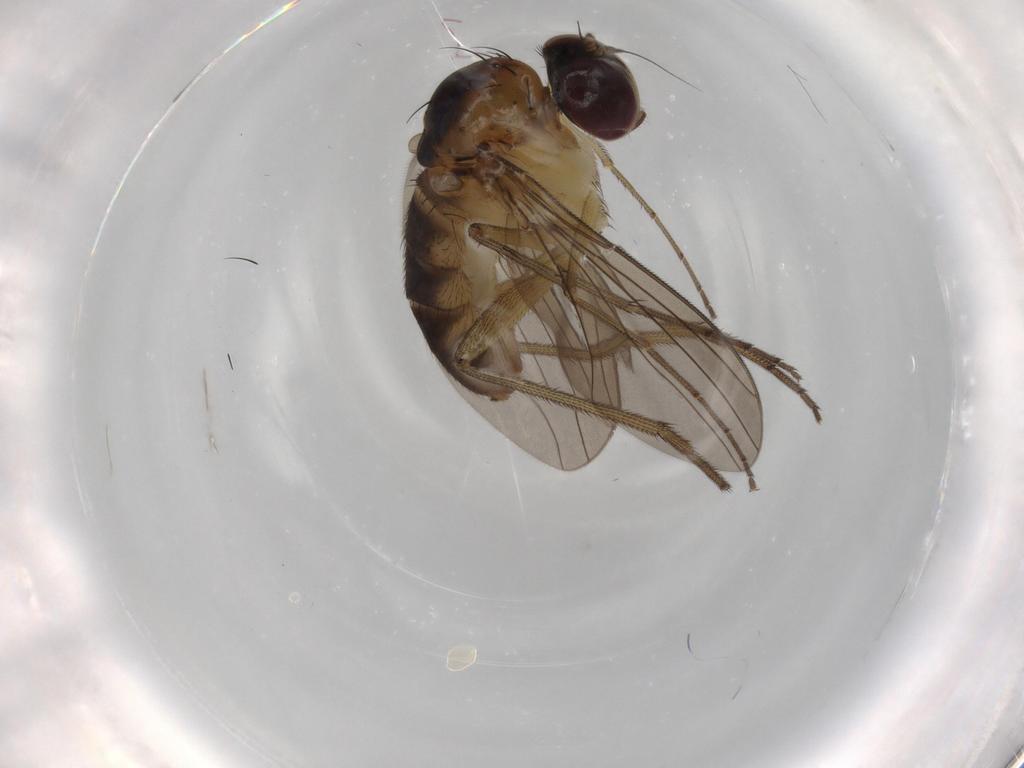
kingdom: Animalia
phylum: Arthropoda
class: Insecta
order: Diptera
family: Dolichopodidae
